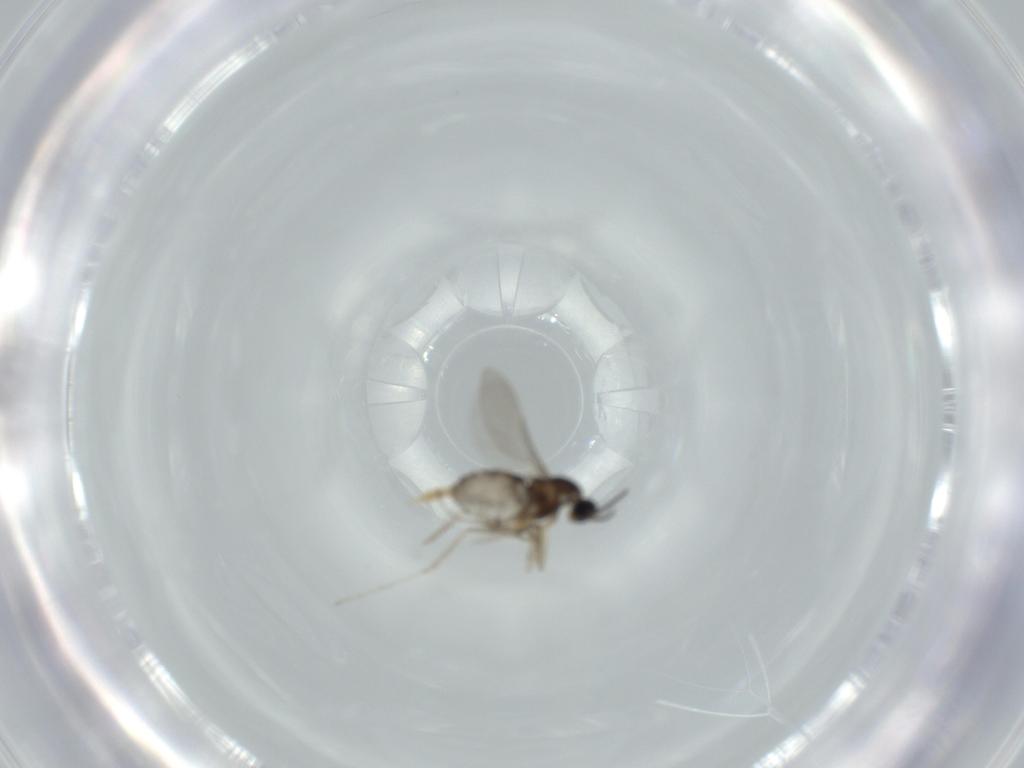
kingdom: Animalia
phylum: Arthropoda
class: Insecta
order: Diptera
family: Cecidomyiidae
